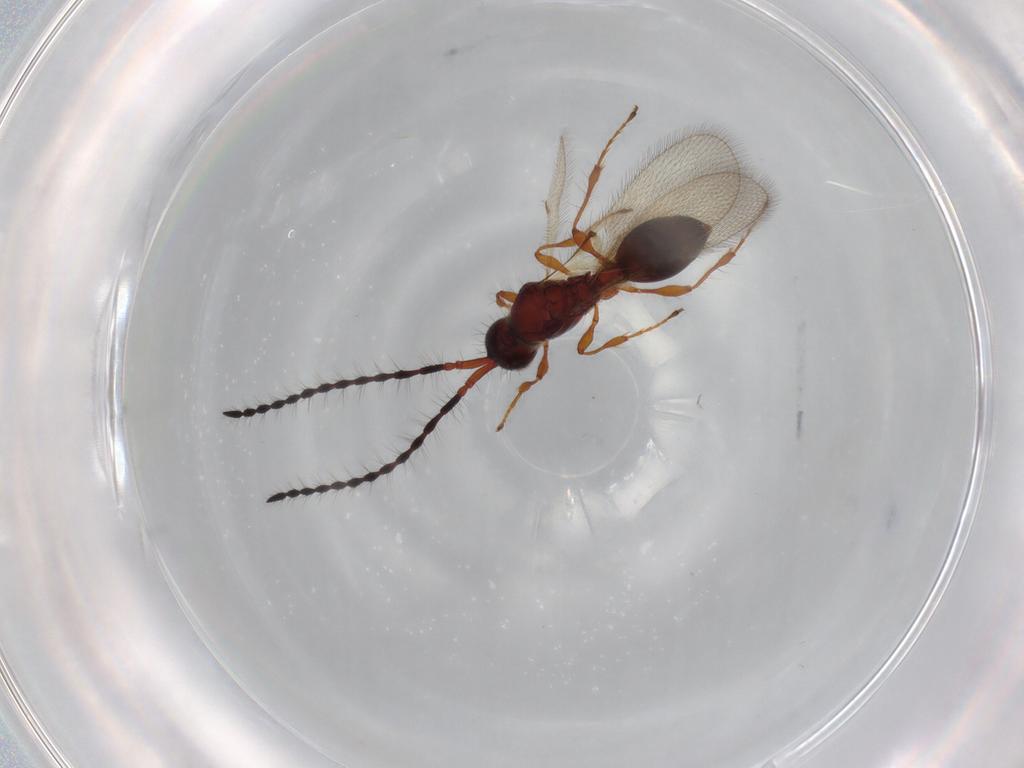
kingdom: Animalia
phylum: Arthropoda
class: Insecta
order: Hymenoptera
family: Diapriidae
